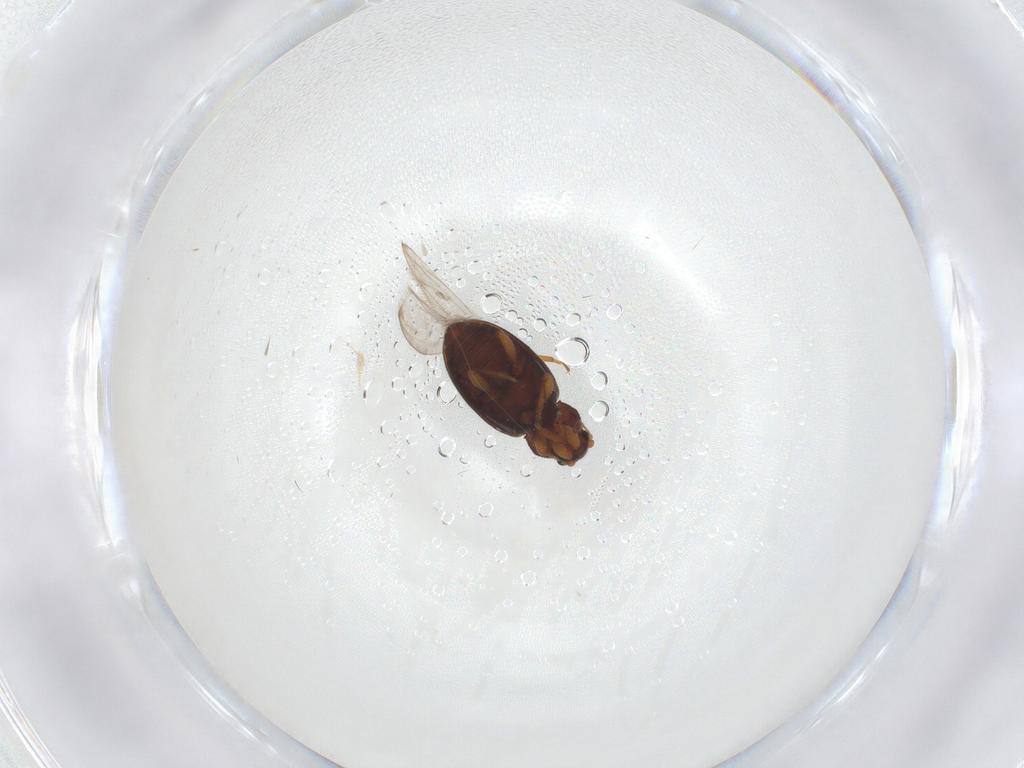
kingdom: Animalia
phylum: Arthropoda
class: Insecta
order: Coleoptera
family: Latridiidae
